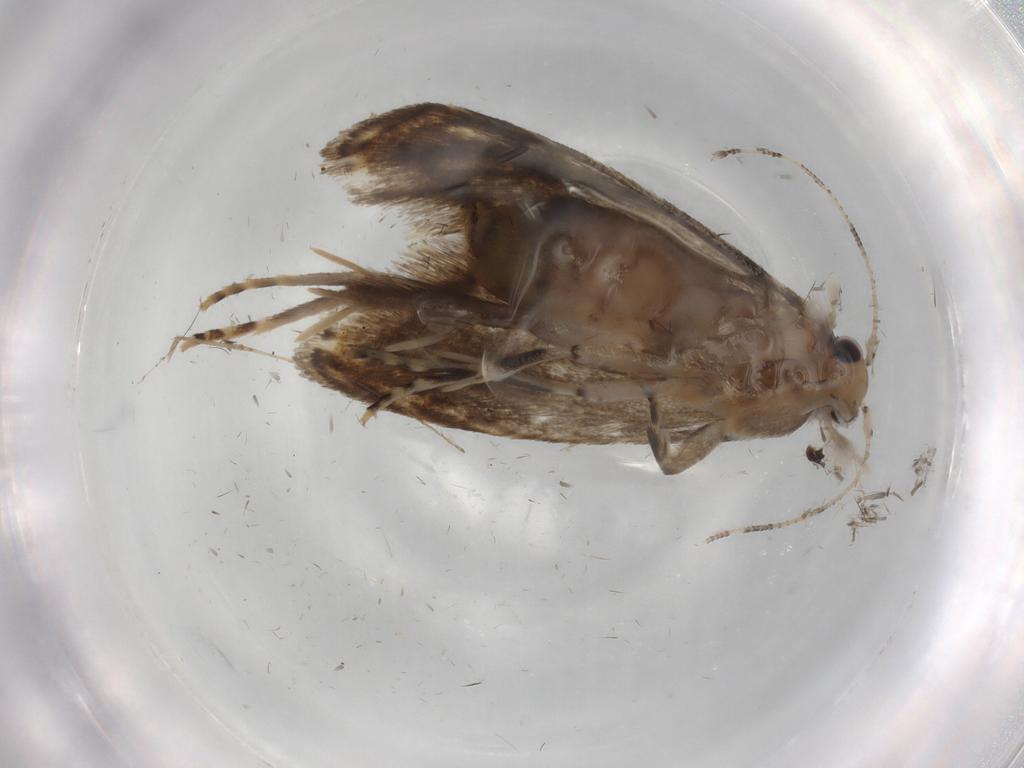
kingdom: Animalia
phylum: Arthropoda
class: Insecta
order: Lepidoptera
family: Tineidae
